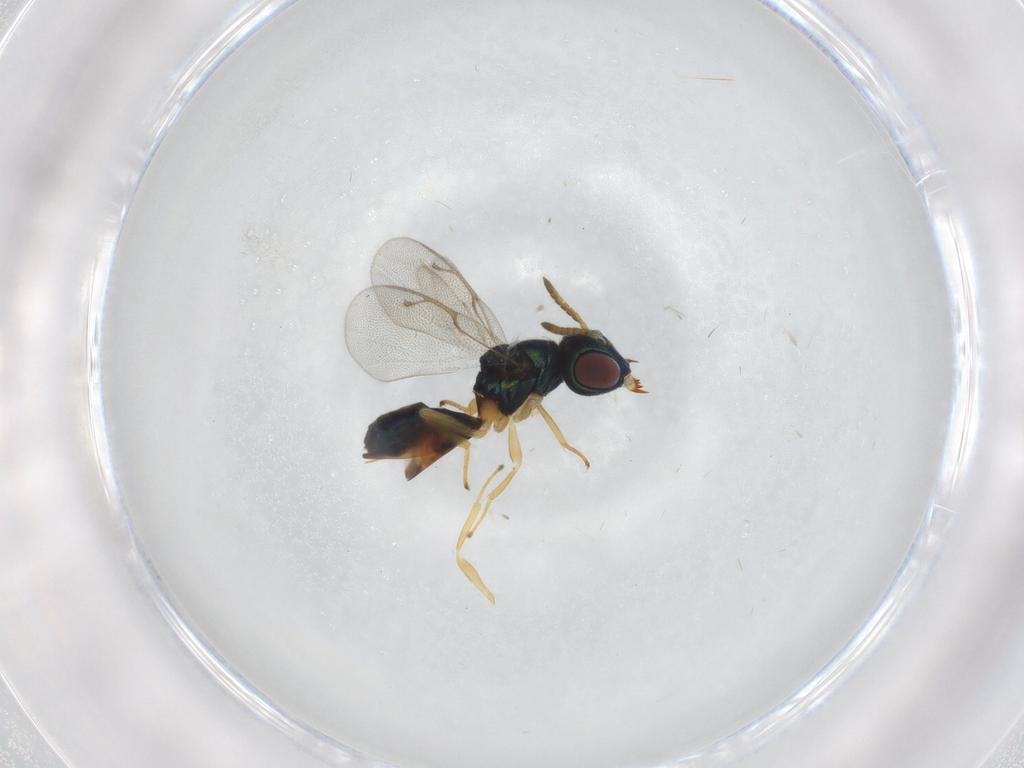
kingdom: Animalia
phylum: Arthropoda
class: Insecta
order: Hymenoptera
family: Pteromalidae
